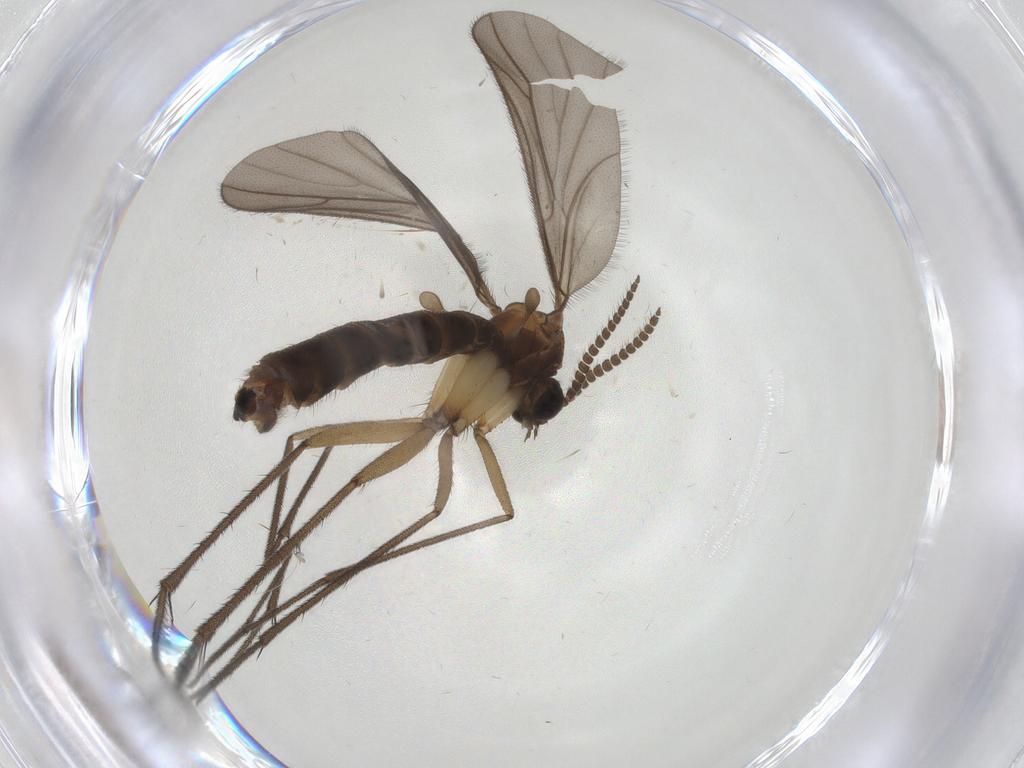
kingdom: Animalia
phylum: Arthropoda
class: Insecta
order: Diptera
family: Ditomyiidae
